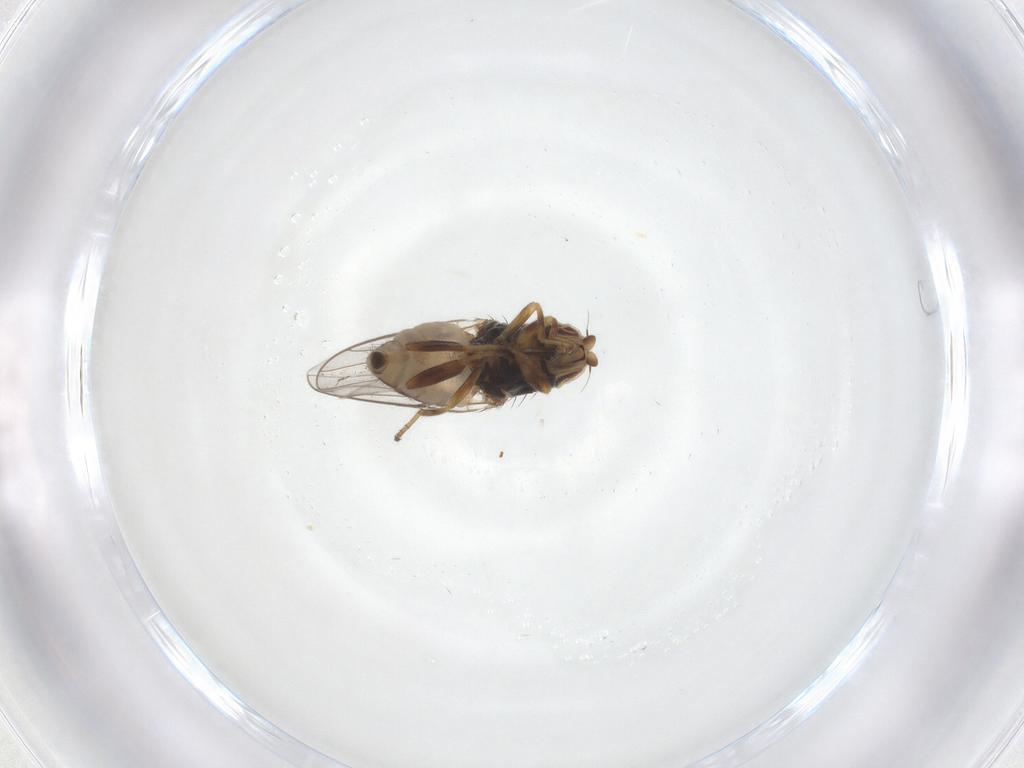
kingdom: Animalia
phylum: Arthropoda
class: Insecta
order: Diptera
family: Chloropidae
